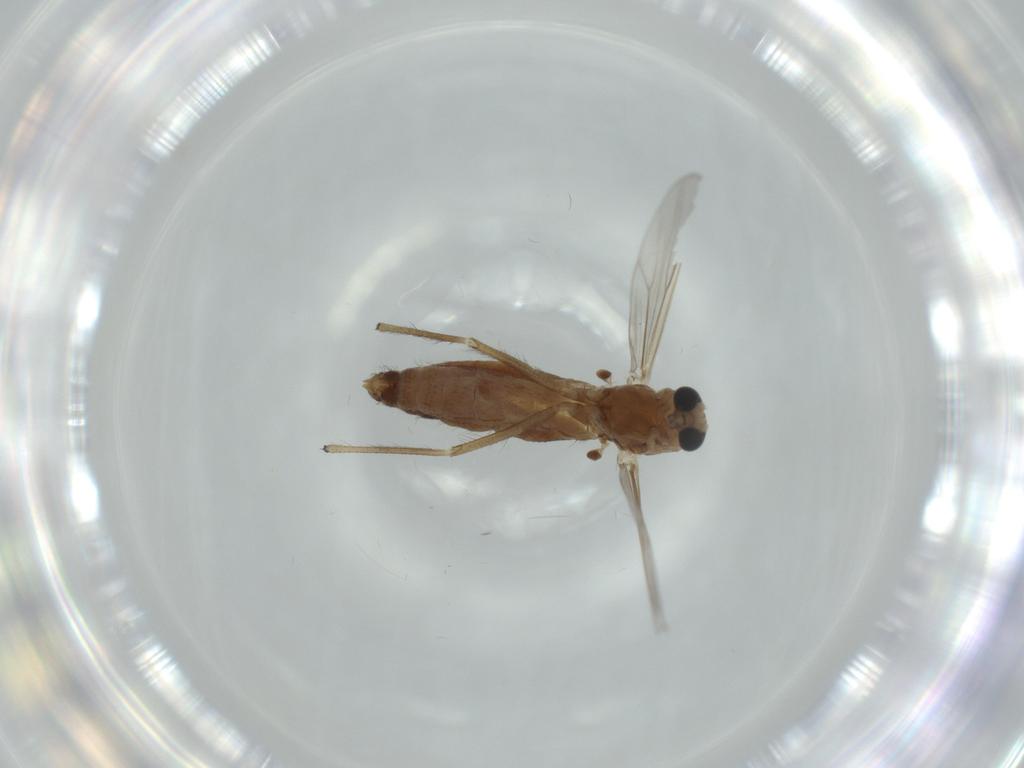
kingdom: Animalia
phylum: Arthropoda
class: Insecta
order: Diptera
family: Chironomidae
